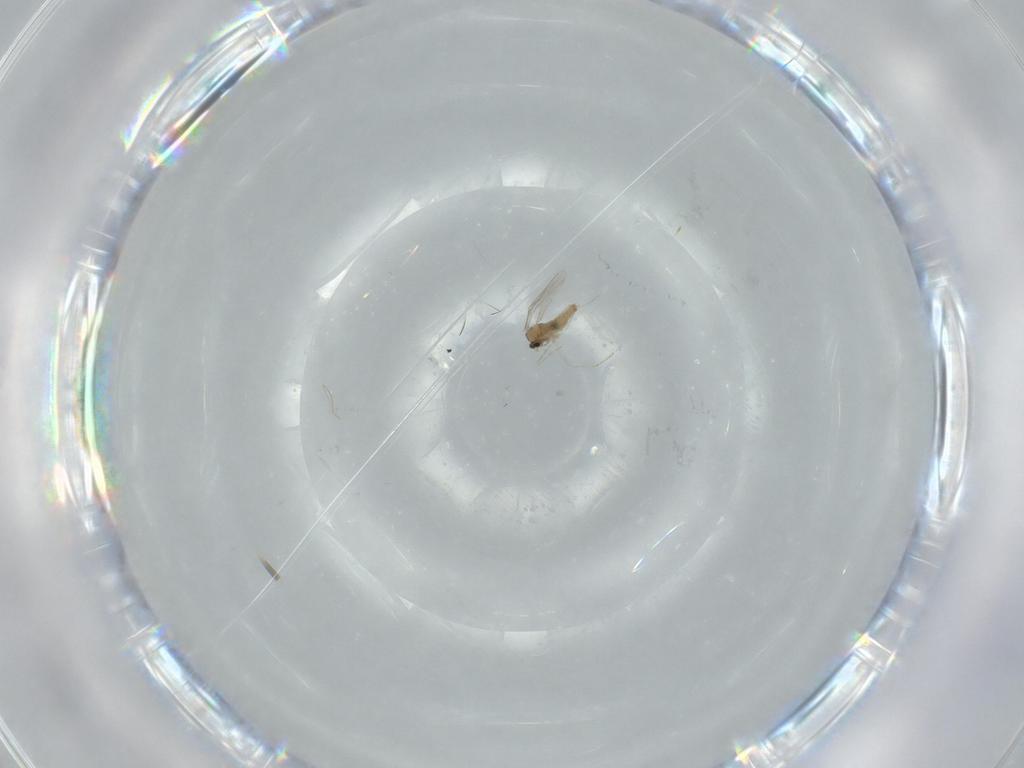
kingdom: Animalia
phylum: Arthropoda
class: Insecta
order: Diptera
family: Cecidomyiidae
